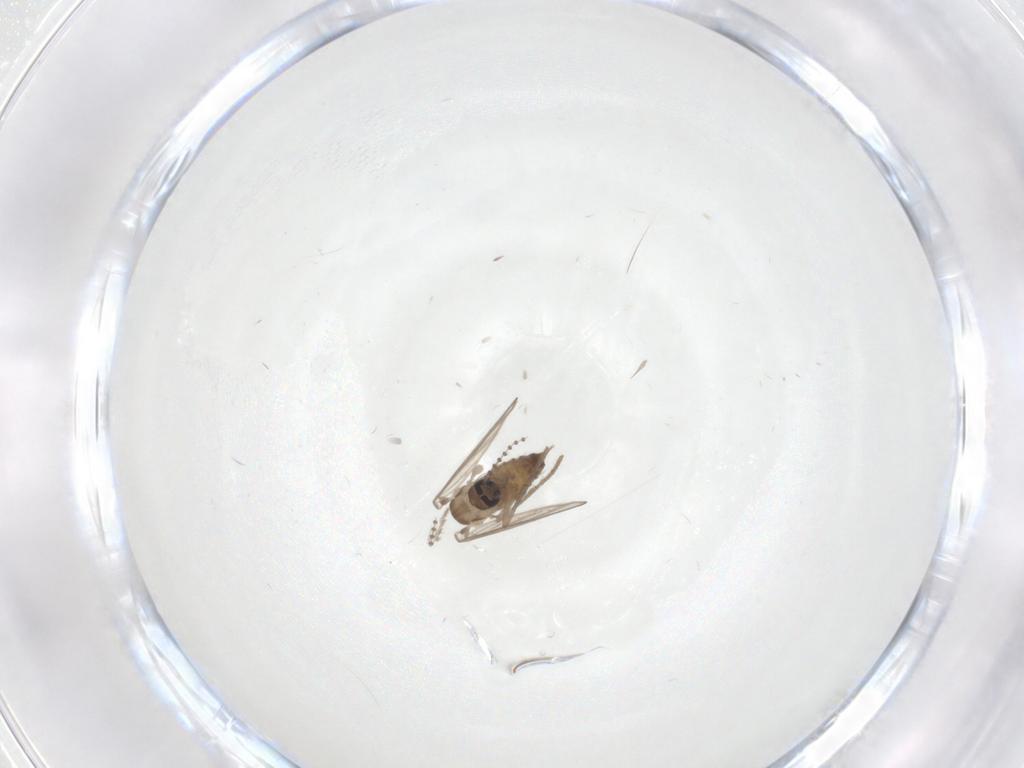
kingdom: Animalia
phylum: Arthropoda
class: Insecta
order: Diptera
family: Psychodidae
